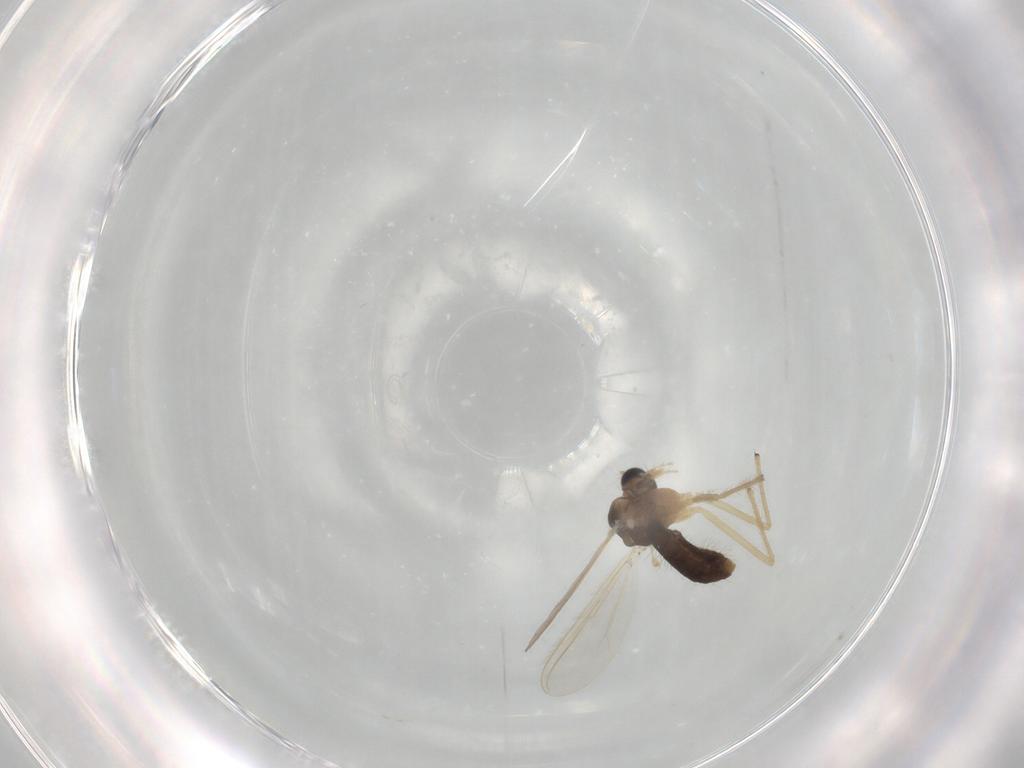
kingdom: Animalia
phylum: Arthropoda
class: Insecta
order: Diptera
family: Chironomidae
